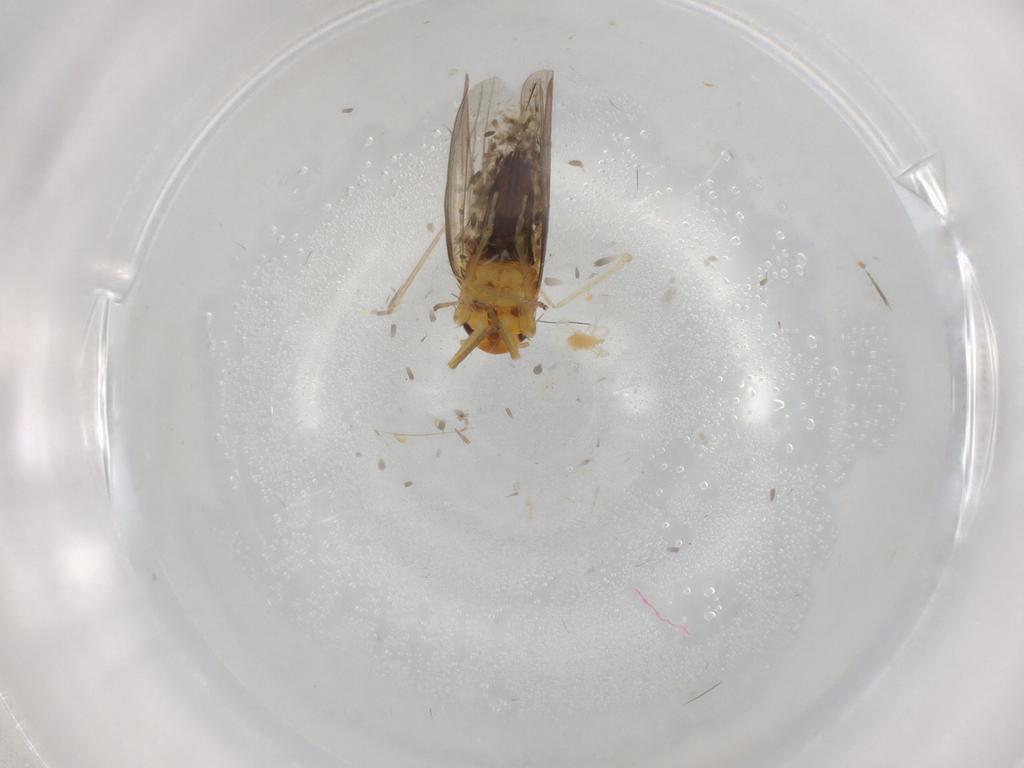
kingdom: Animalia
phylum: Arthropoda
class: Insecta
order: Hemiptera
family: Cicadellidae
